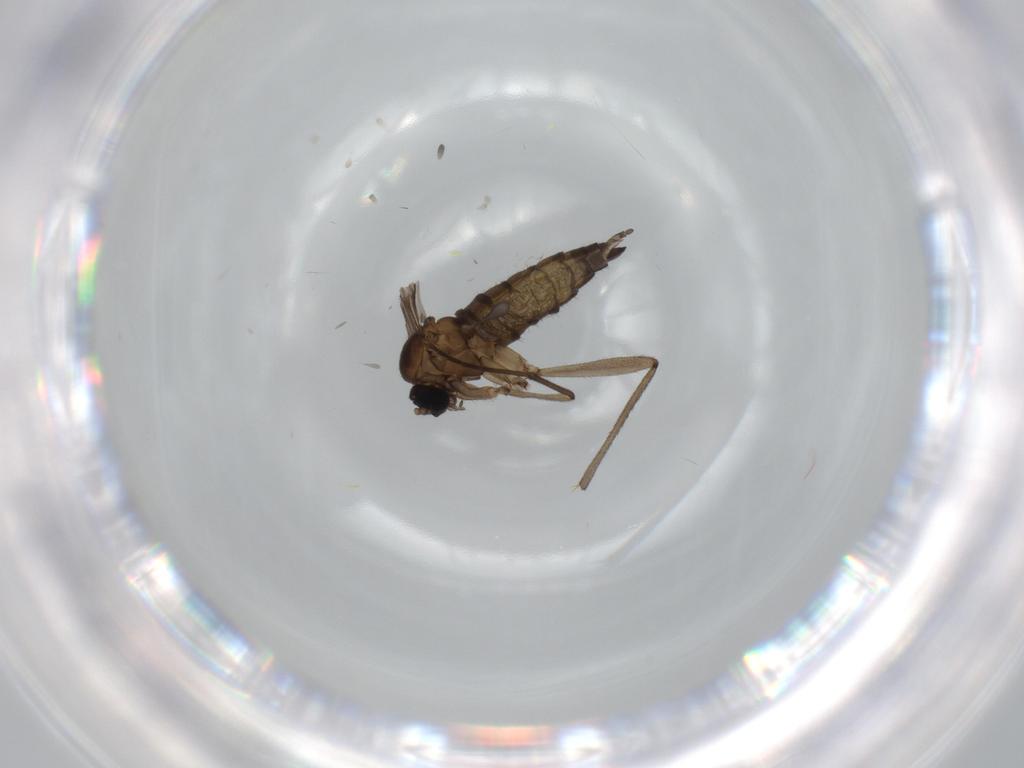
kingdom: Animalia
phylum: Arthropoda
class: Insecta
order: Diptera
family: Sciaridae
